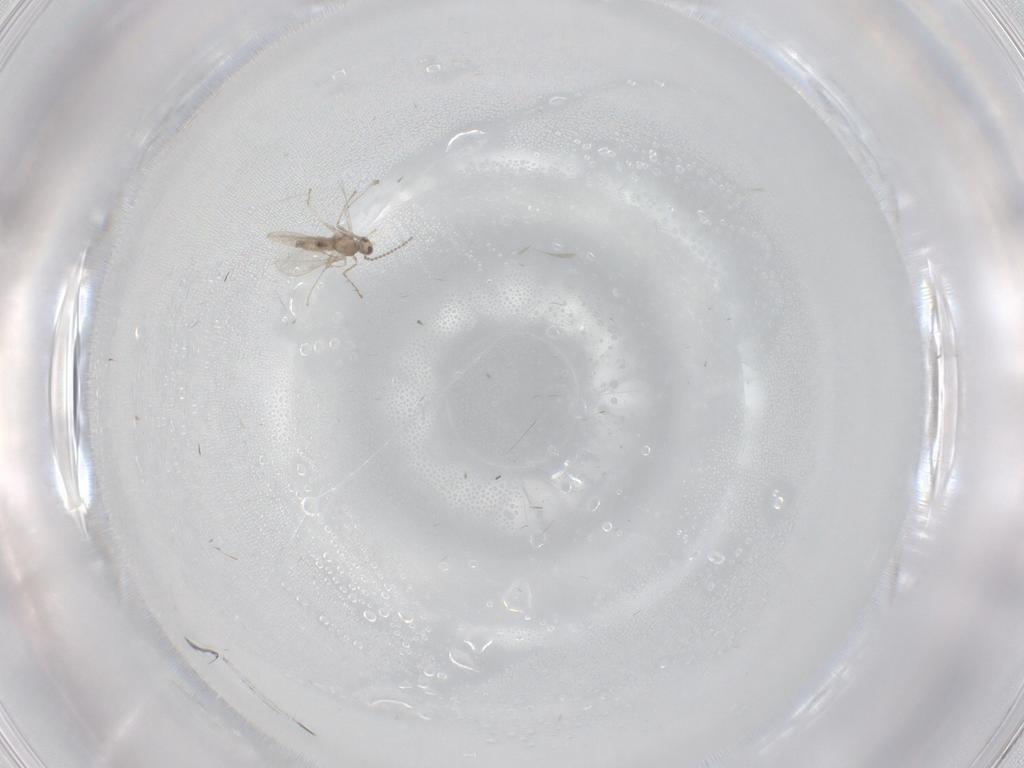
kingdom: Animalia
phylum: Arthropoda
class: Insecta
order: Diptera
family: Cecidomyiidae
